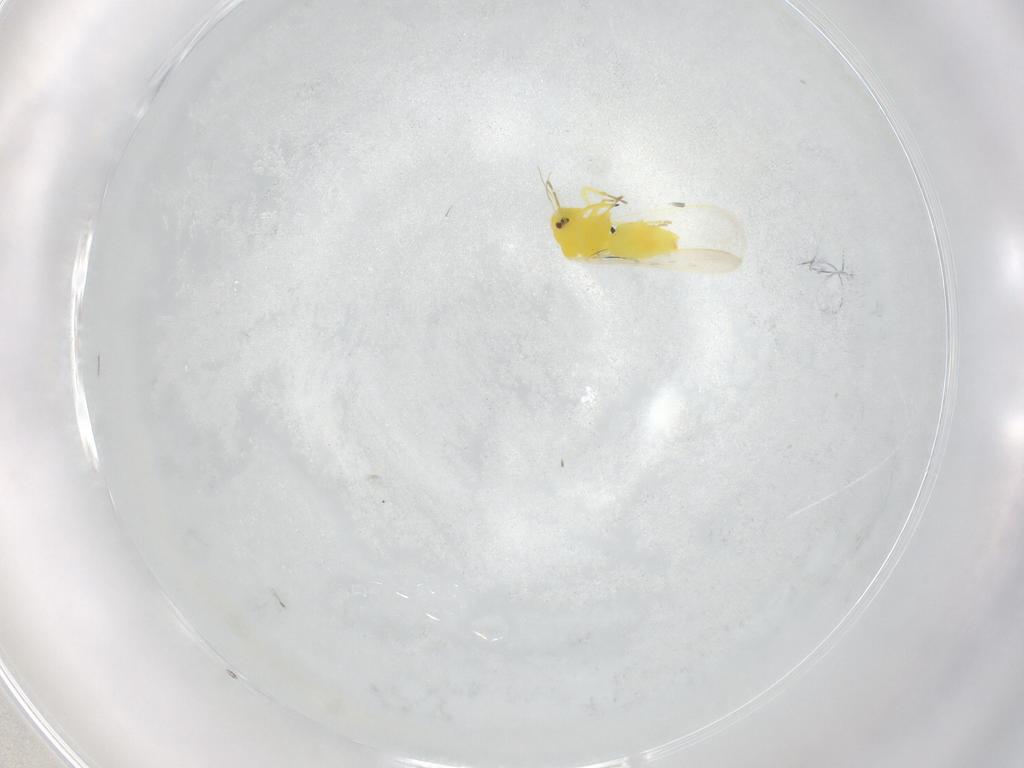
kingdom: Animalia
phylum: Arthropoda
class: Insecta
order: Hemiptera
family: Aleyrodidae
